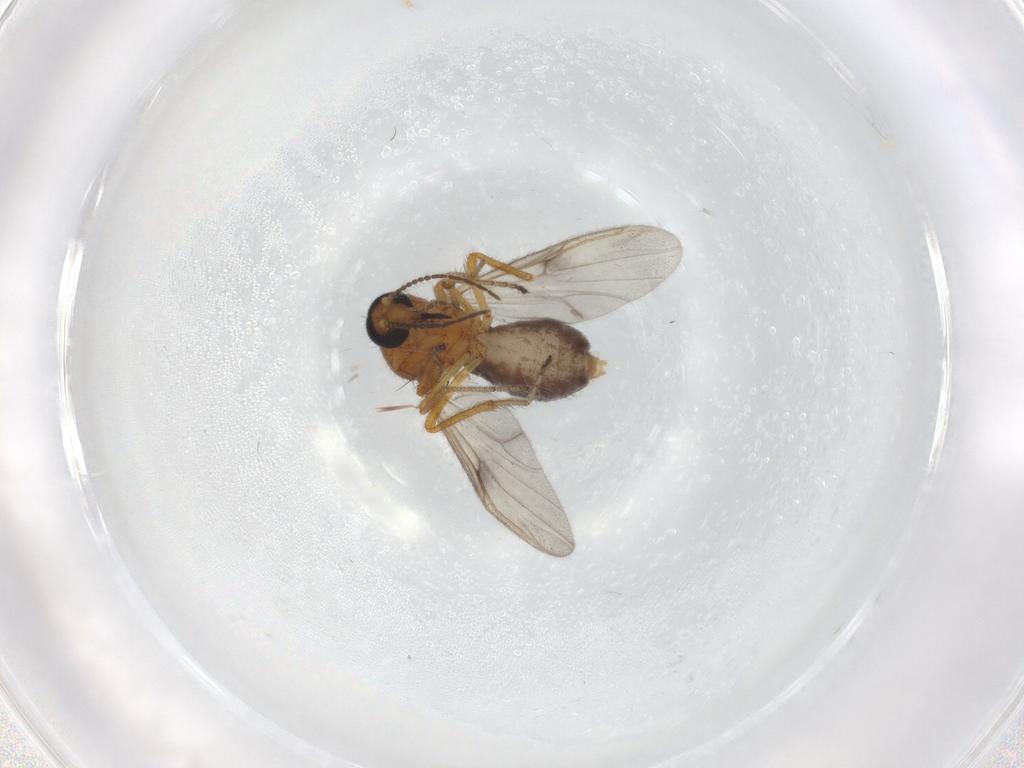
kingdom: Animalia
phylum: Arthropoda
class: Insecta
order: Diptera
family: Ceratopogonidae
